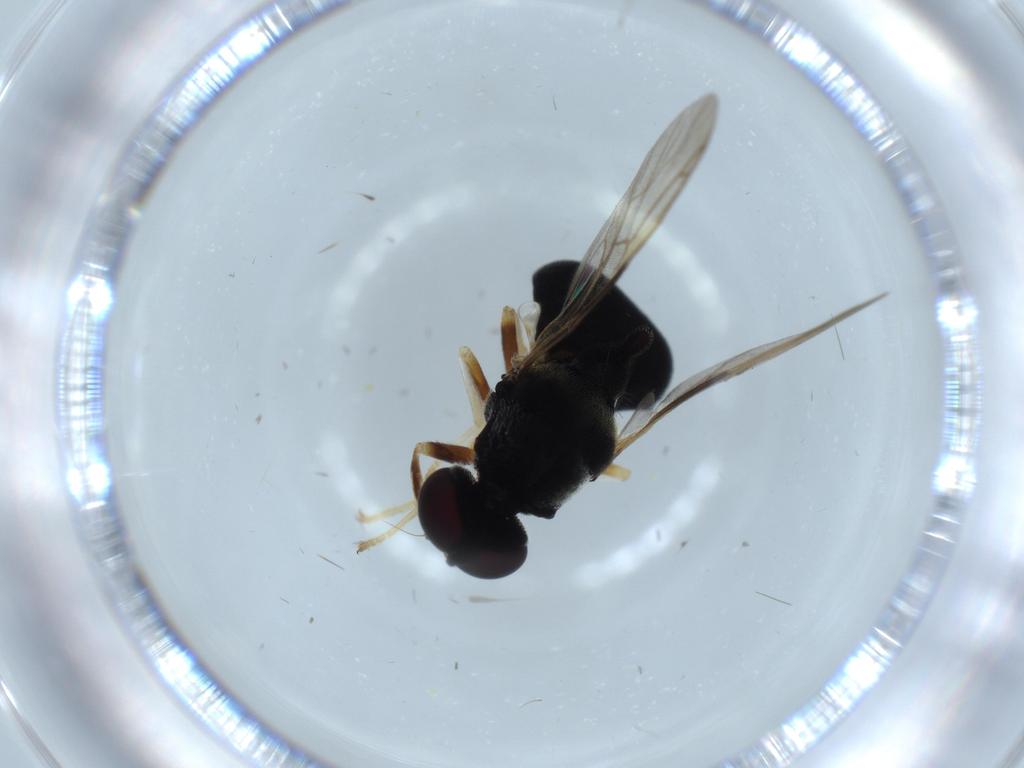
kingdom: Animalia
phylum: Arthropoda
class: Insecta
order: Diptera
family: Stratiomyidae
